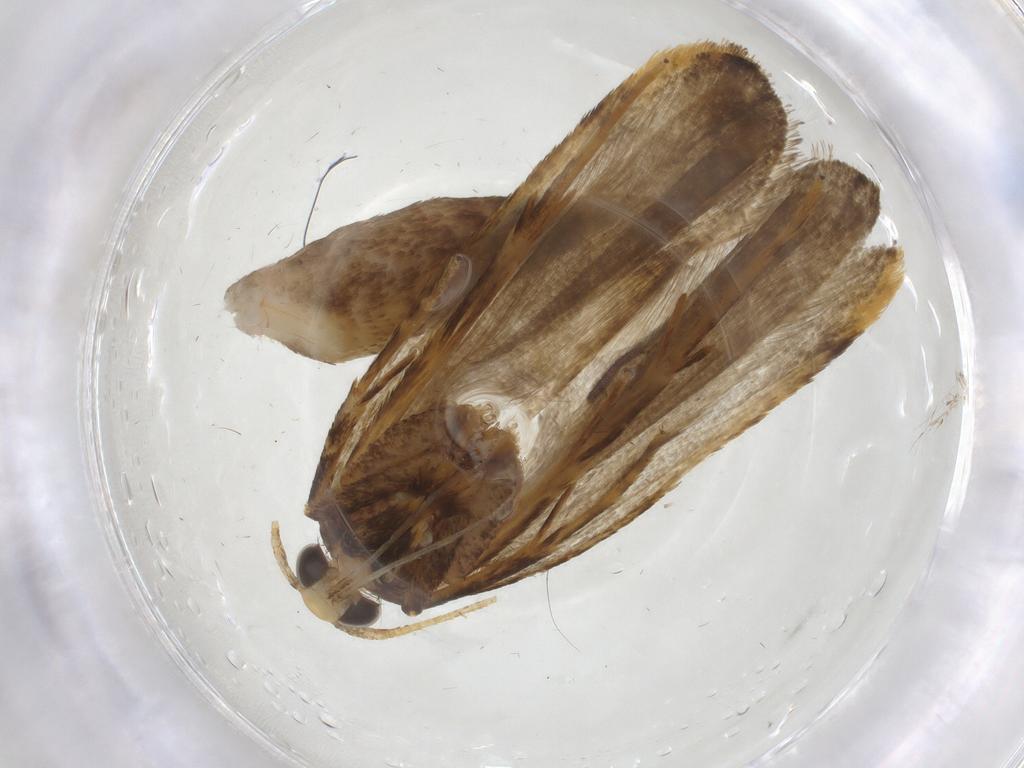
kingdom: Animalia
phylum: Arthropoda
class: Insecta
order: Lepidoptera
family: Autostichidae
